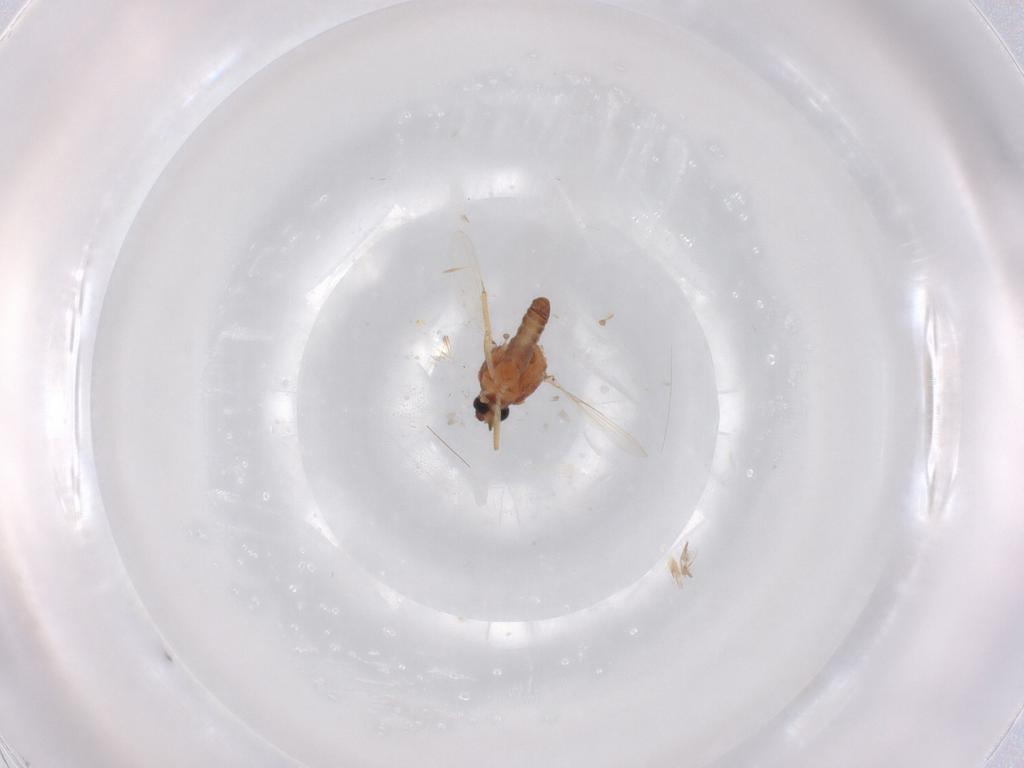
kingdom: Animalia
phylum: Arthropoda
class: Insecta
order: Diptera
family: Ceratopogonidae
